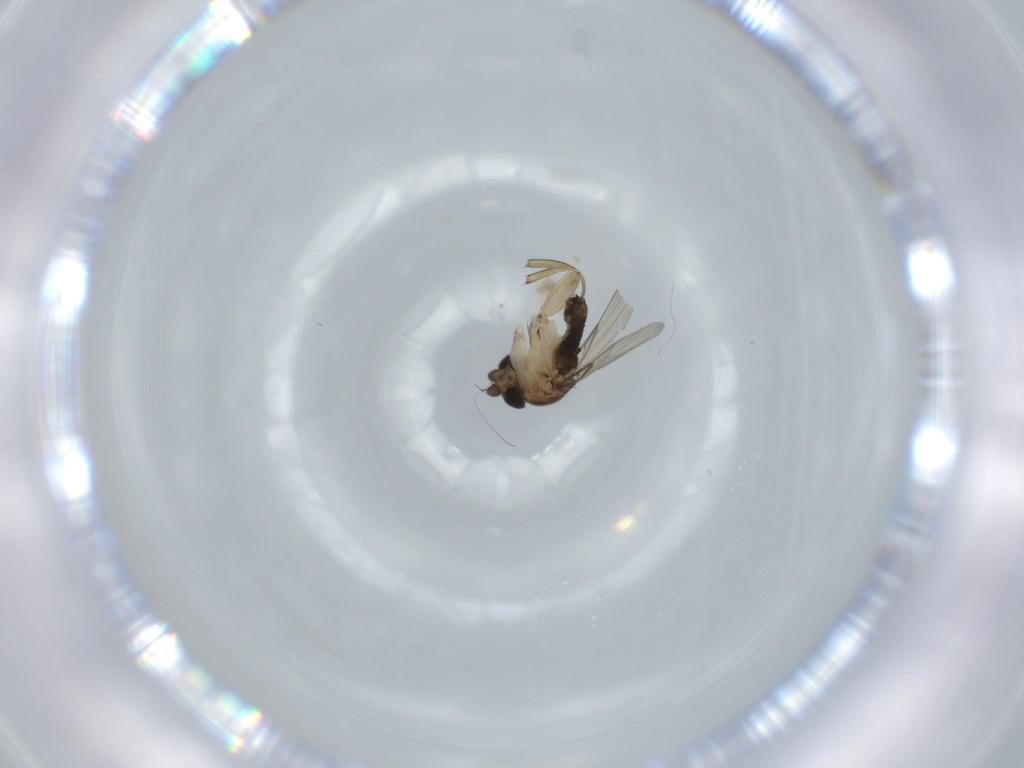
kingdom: Animalia
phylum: Arthropoda
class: Insecta
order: Diptera
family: Phoridae
